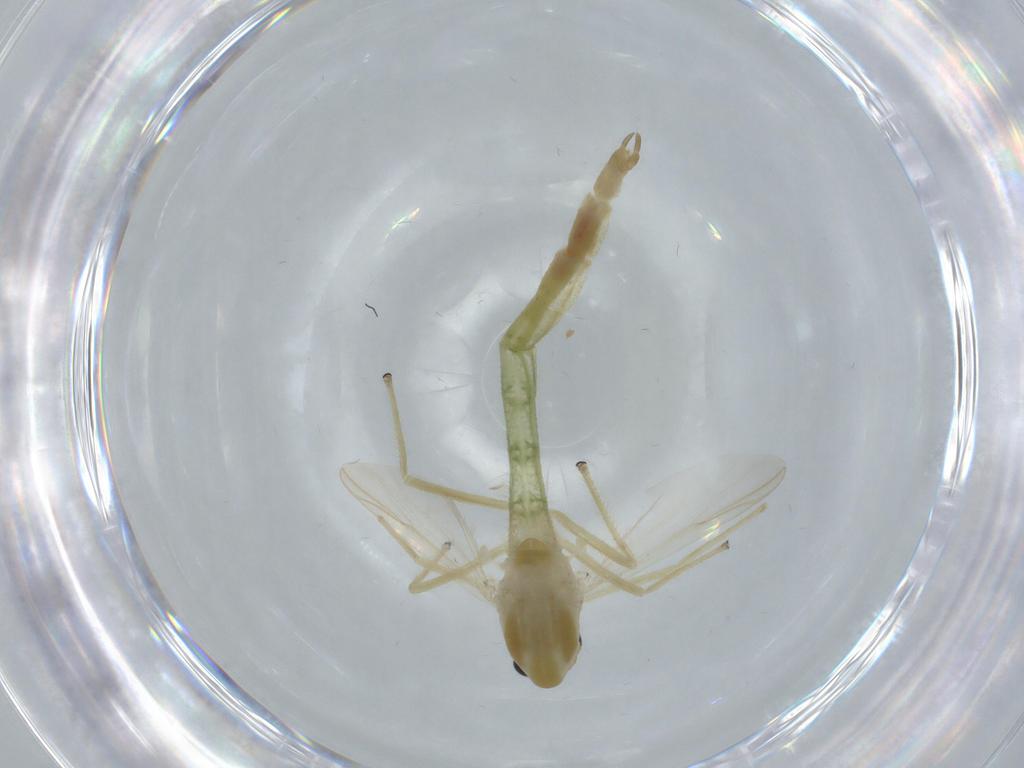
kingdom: Animalia
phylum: Arthropoda
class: Insecta
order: Diptera
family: Chironomidae
